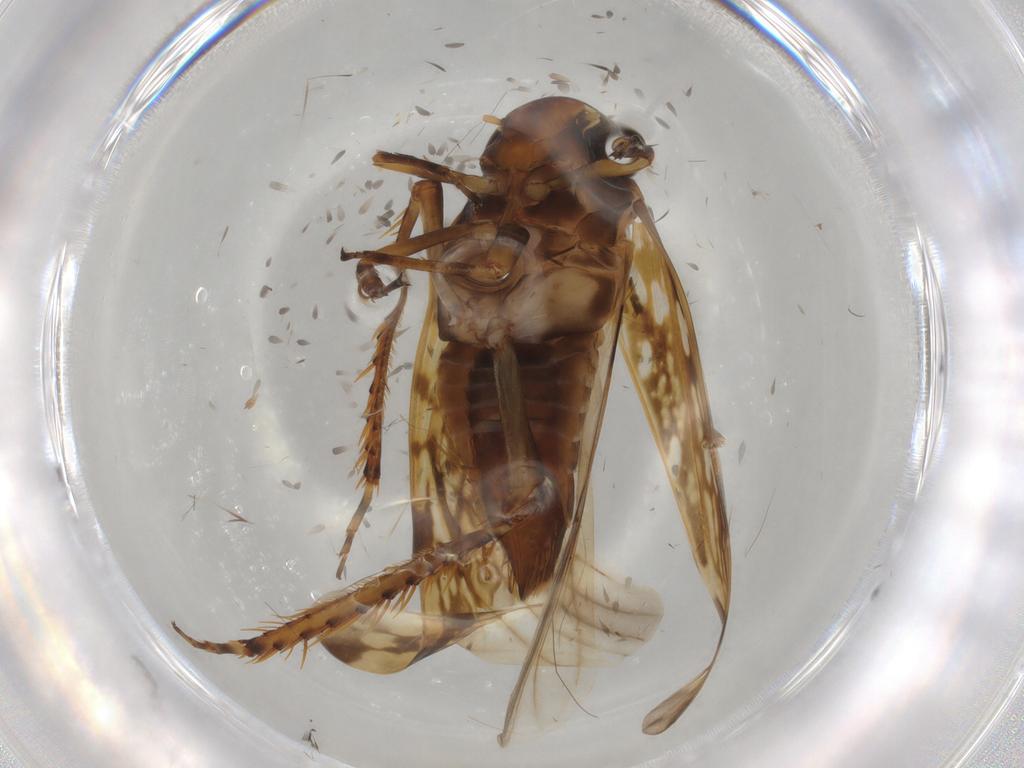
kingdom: Animalia
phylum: Arthropoda
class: Insecta
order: Hemiptera
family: Cicadellidae
